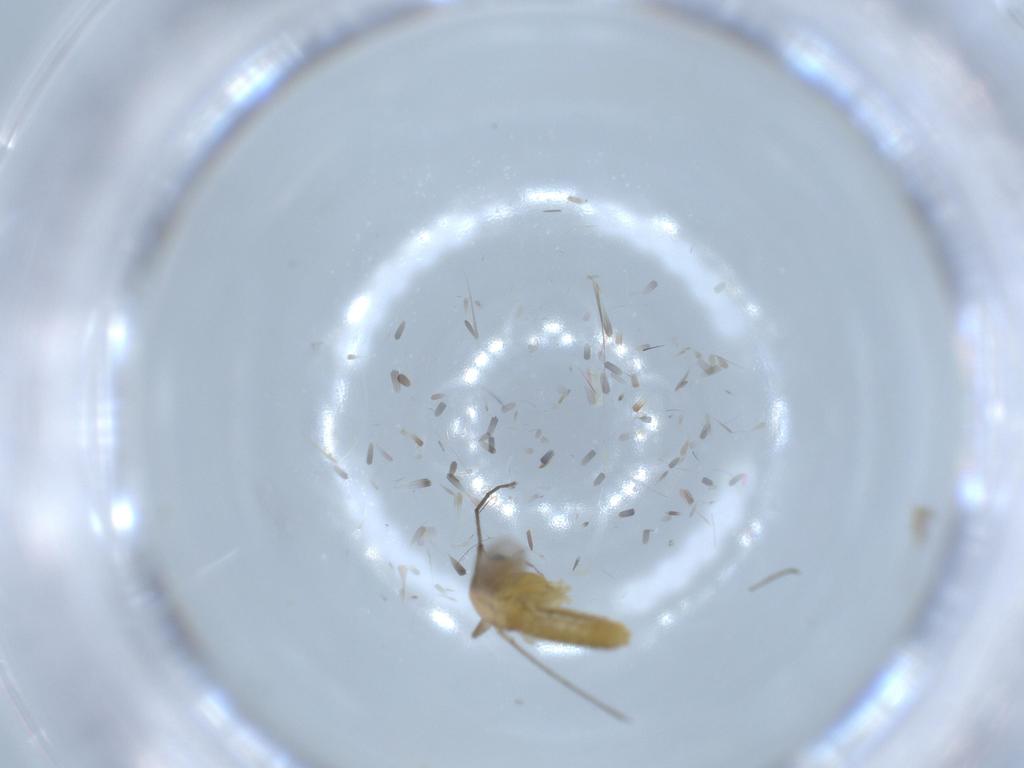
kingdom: Animalia
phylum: Arthropoda
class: Insecta
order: Diptera
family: Chironomidae
